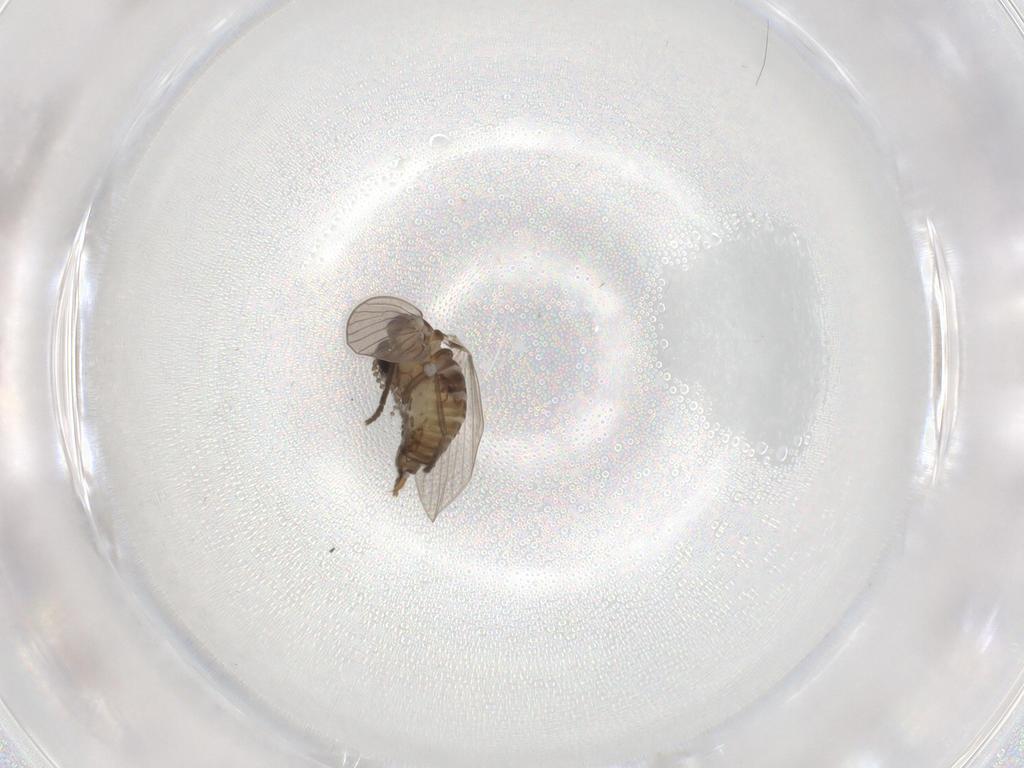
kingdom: Animalia
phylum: Arthropoda
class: Insecta
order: Diptera
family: Psychodidae
